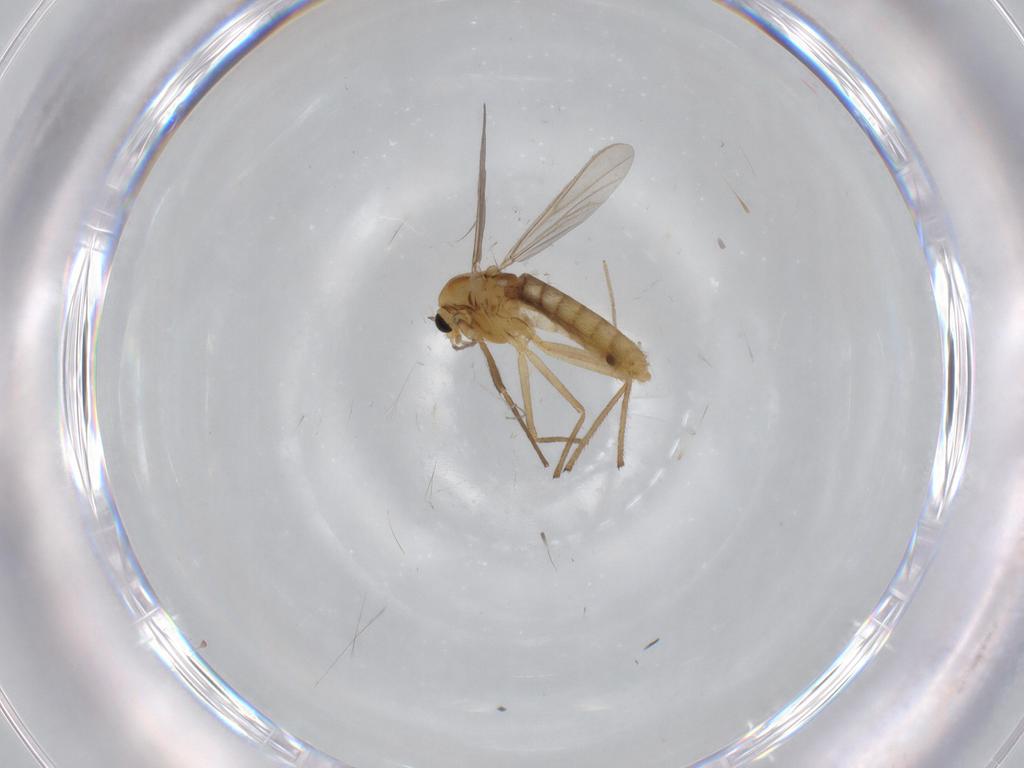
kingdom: Animalia
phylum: Arthropoda
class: Insecta
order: Diptera
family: Chironomidae
